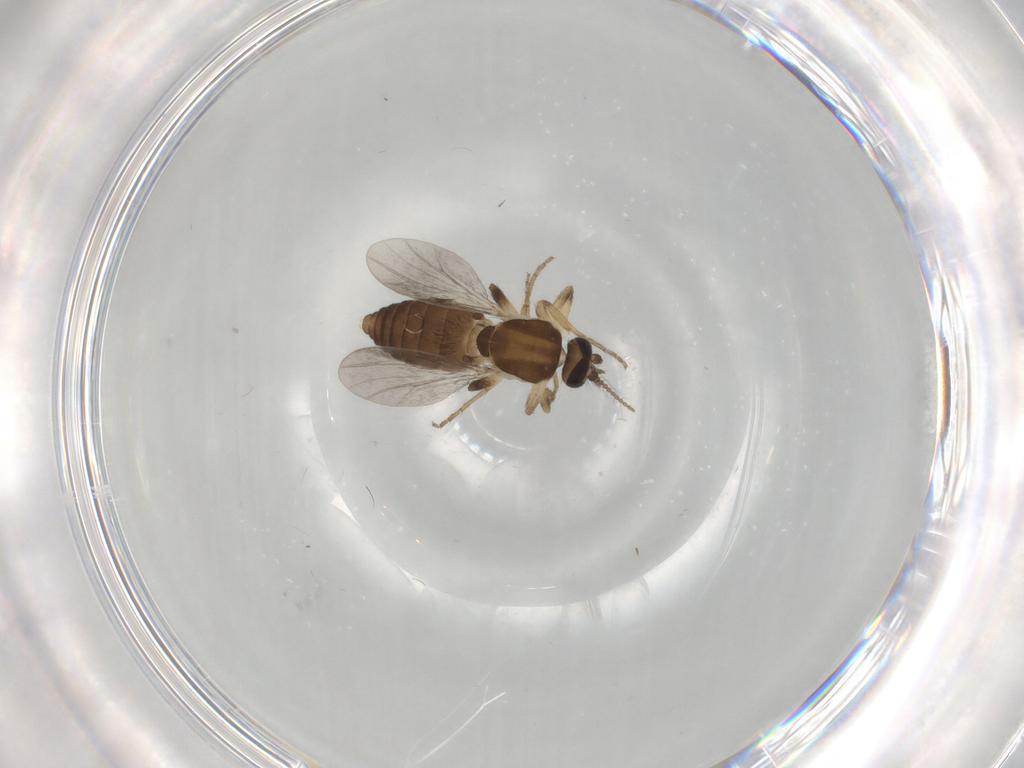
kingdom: Animalia
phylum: Arthropoda
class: Insecta
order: Diptera
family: Ceratopogonidae
